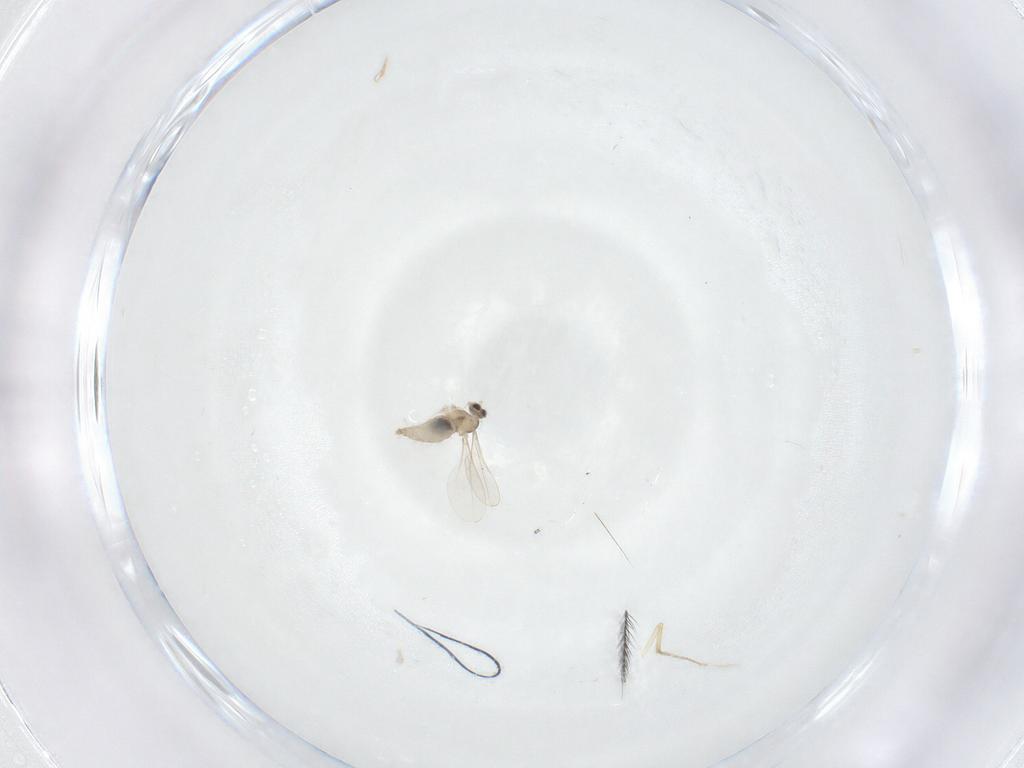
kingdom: Animalia
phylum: Arthropoda
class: Insecta
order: Diptera
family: Cecidomyiidae
